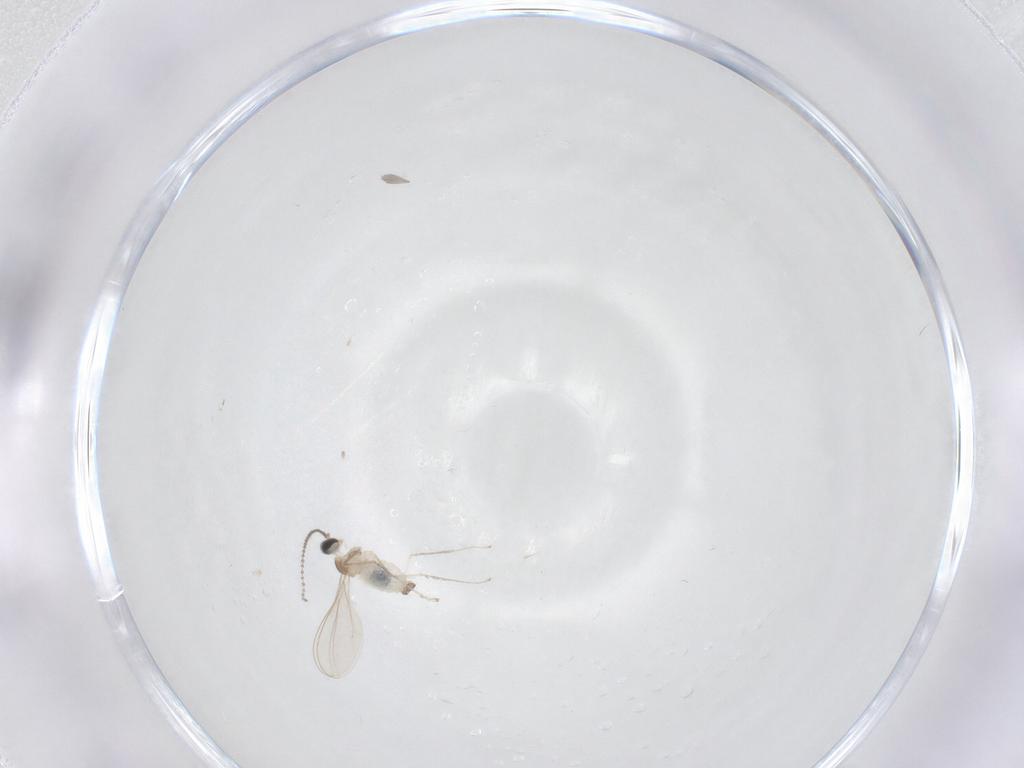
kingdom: Animalia
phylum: Arthropoda
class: Insecta
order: Diptera
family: Cecidomyiidae
